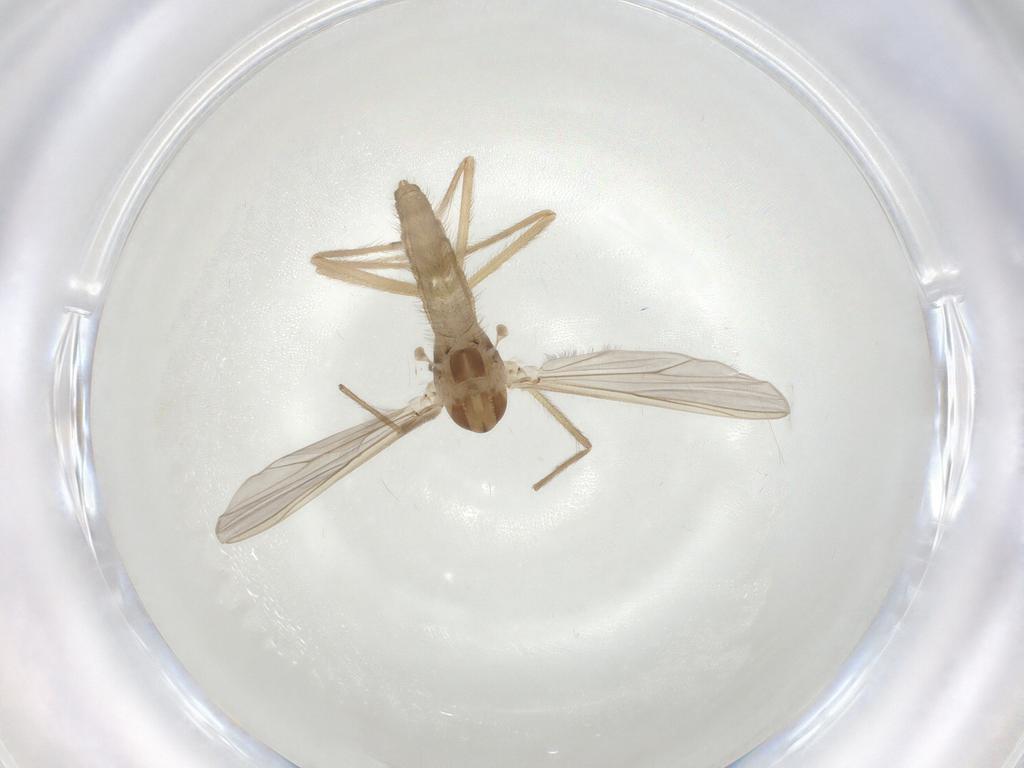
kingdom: Animalia
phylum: Arthropoda
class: Insecta
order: Diptera
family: Chironomidae
